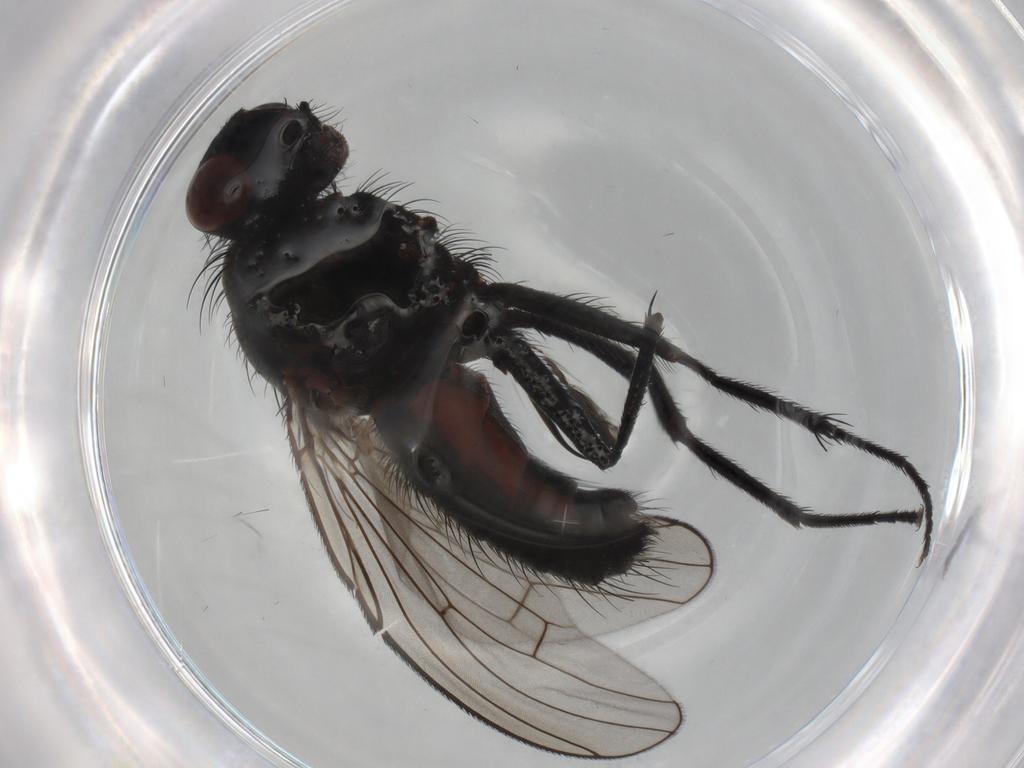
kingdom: Animalia
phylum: Arthropoda
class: Insecta
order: Diptera
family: Anthomyiidae
